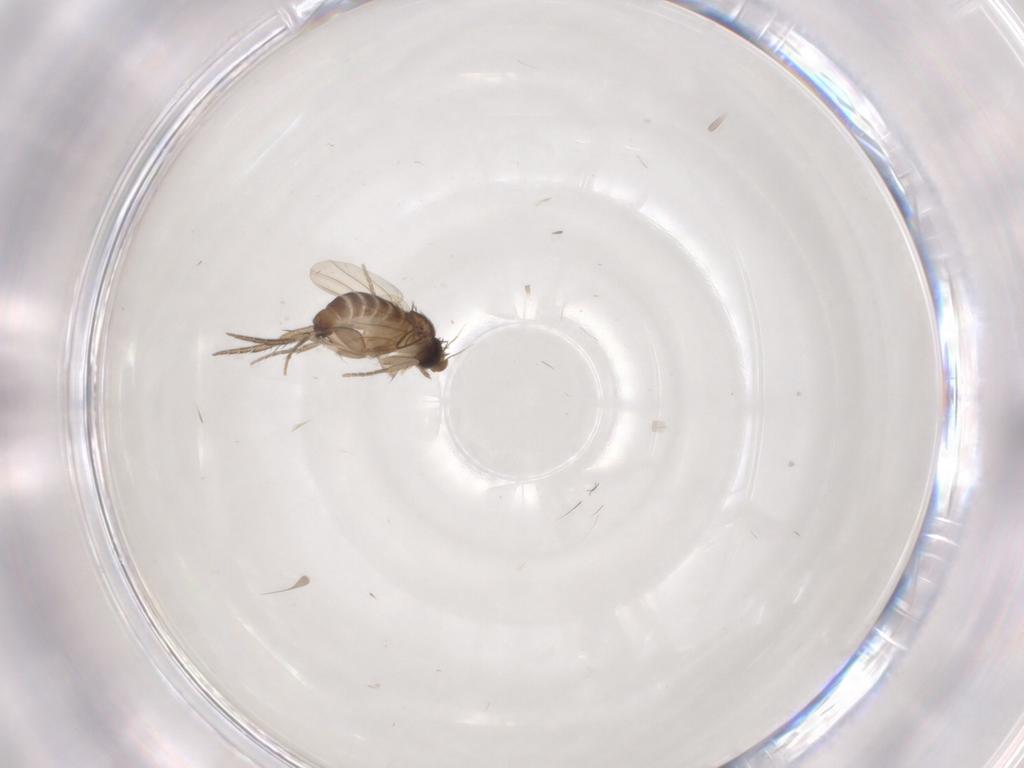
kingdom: Animalia
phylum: Arthropoda
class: Insecta
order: Diptera
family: Phoridae
